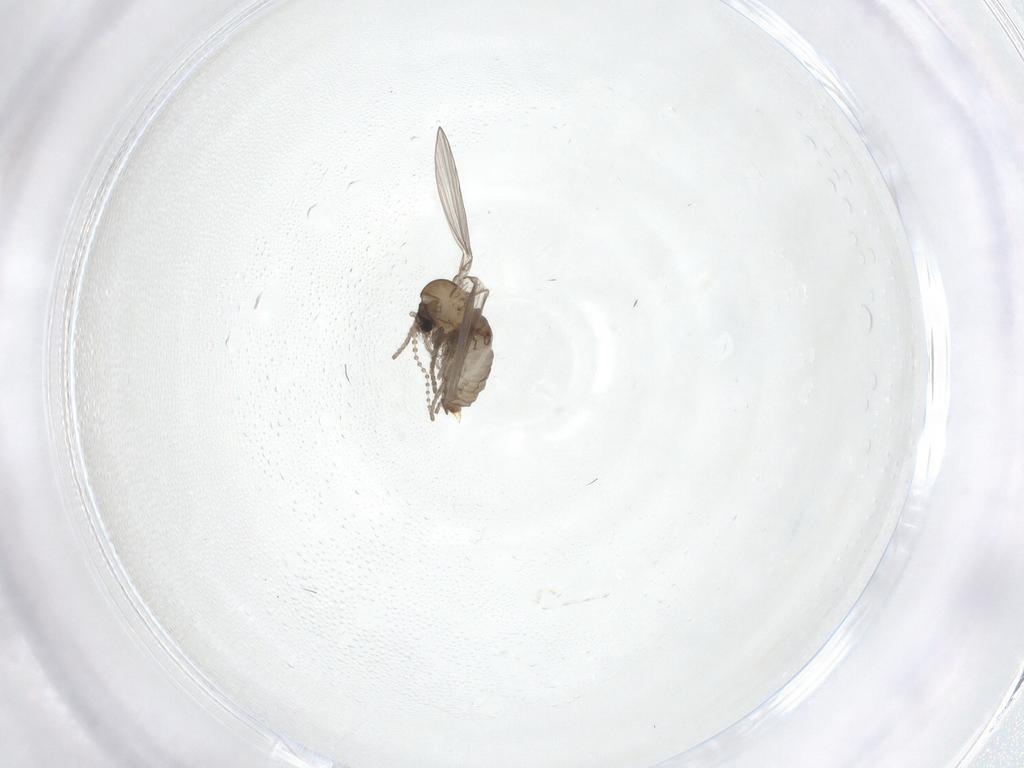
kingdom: Animalia
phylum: Arthropoda
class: Insecta
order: Diptera
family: Psychodidae
